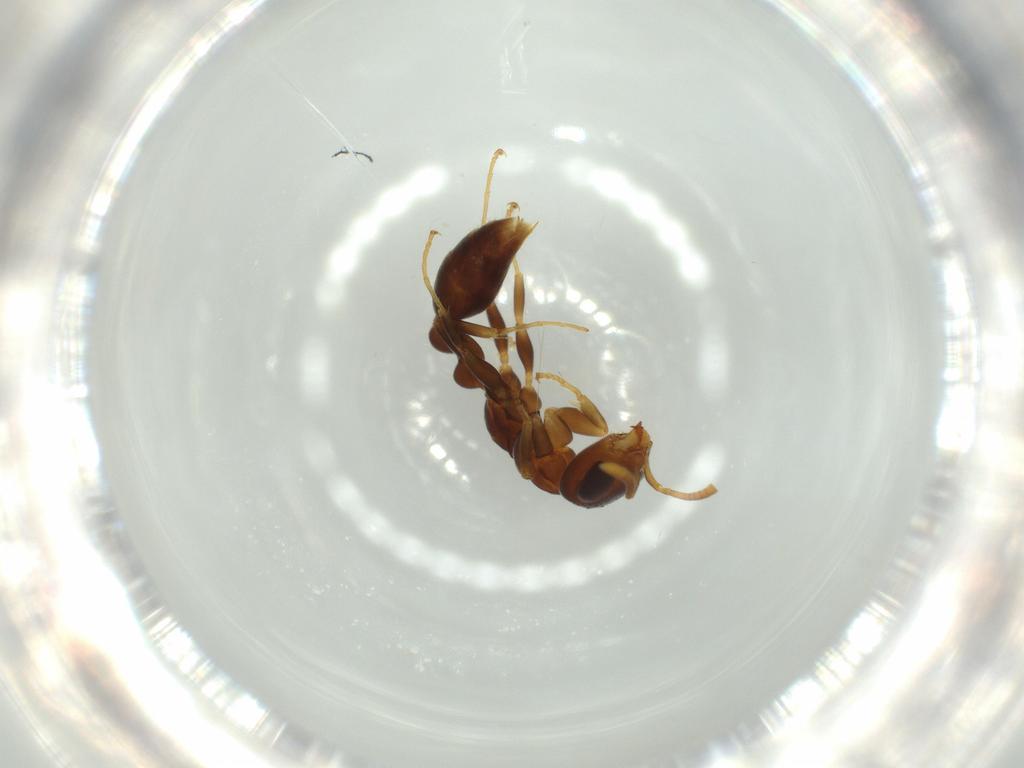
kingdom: Animalia
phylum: Arthropoda
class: Insecta
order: Hymenoptera
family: Formicidae
